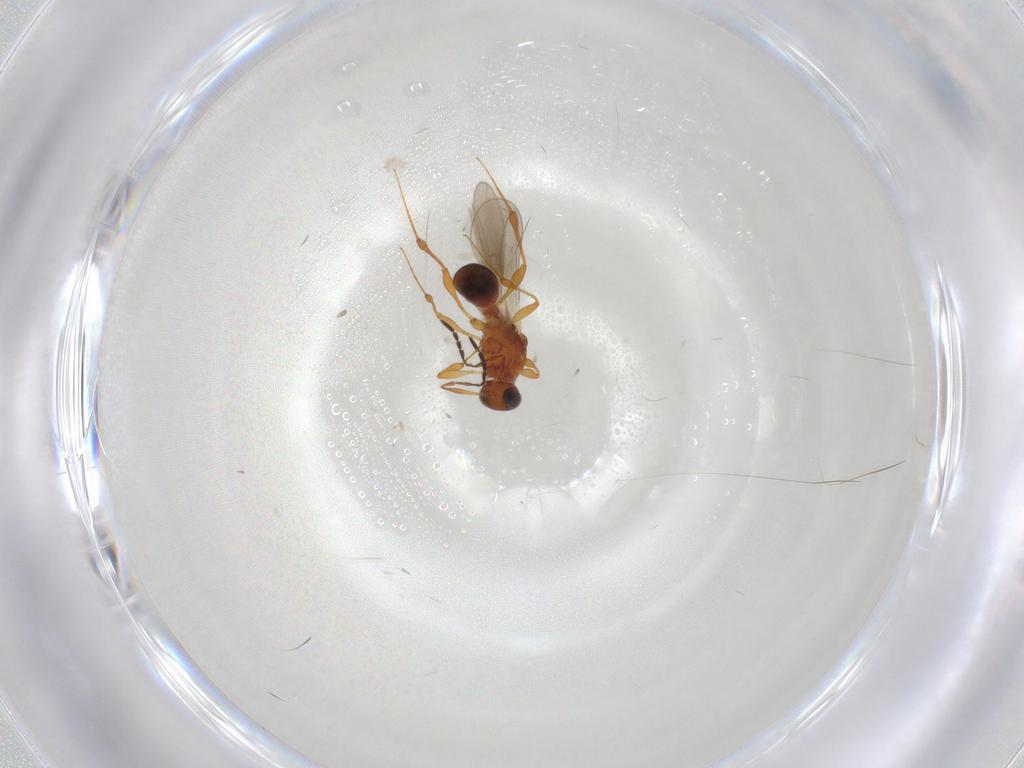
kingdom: Animalia
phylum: Arthropoda
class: Insecta
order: Hymenoptera
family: Platygastridae
